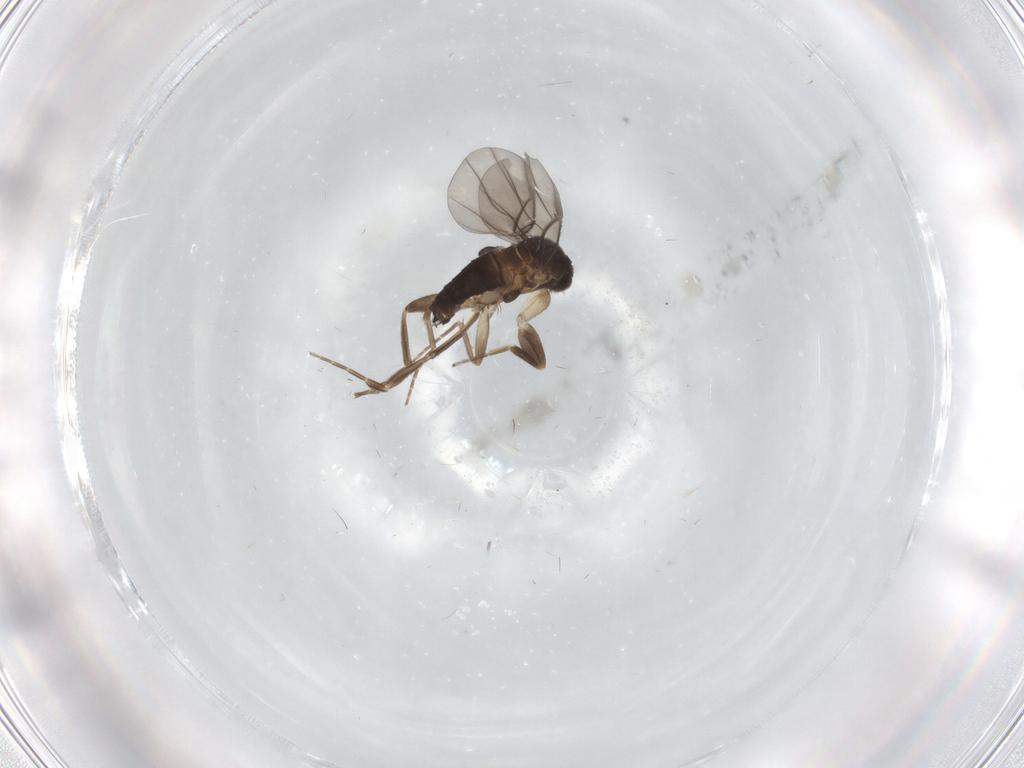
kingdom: Animalia
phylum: Arthropoda
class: Insecta
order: Diptera
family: Phoridae
